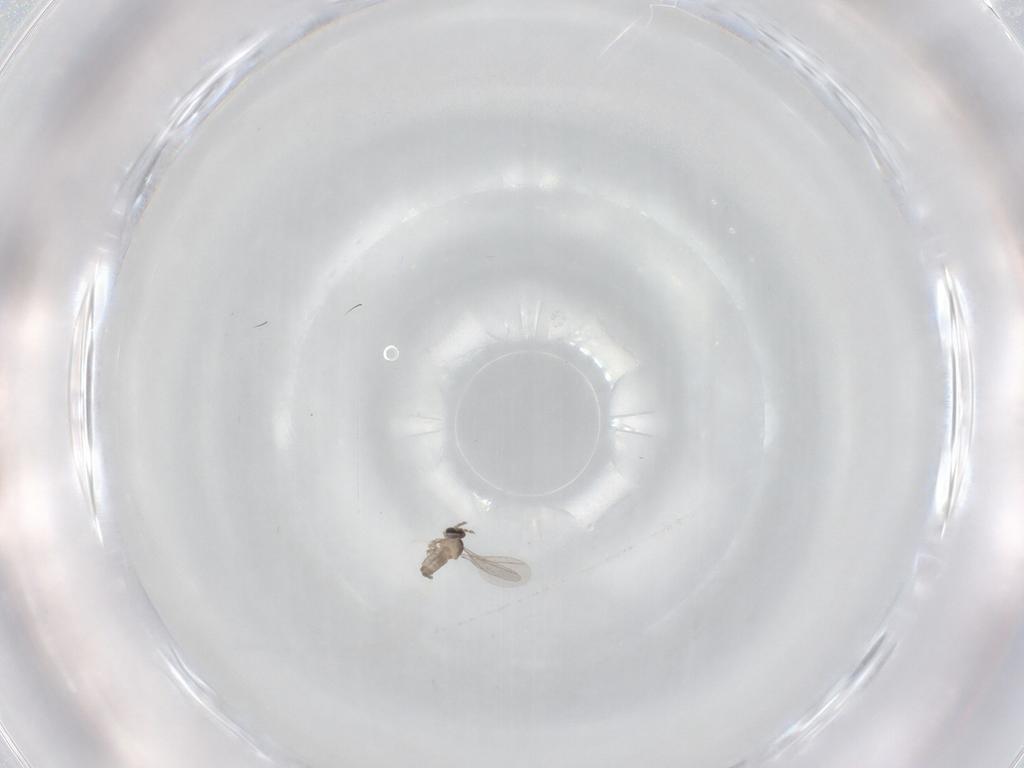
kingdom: Animalia
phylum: Arthropoda
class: Insecta
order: Diptera
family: Cecidomyiidae
